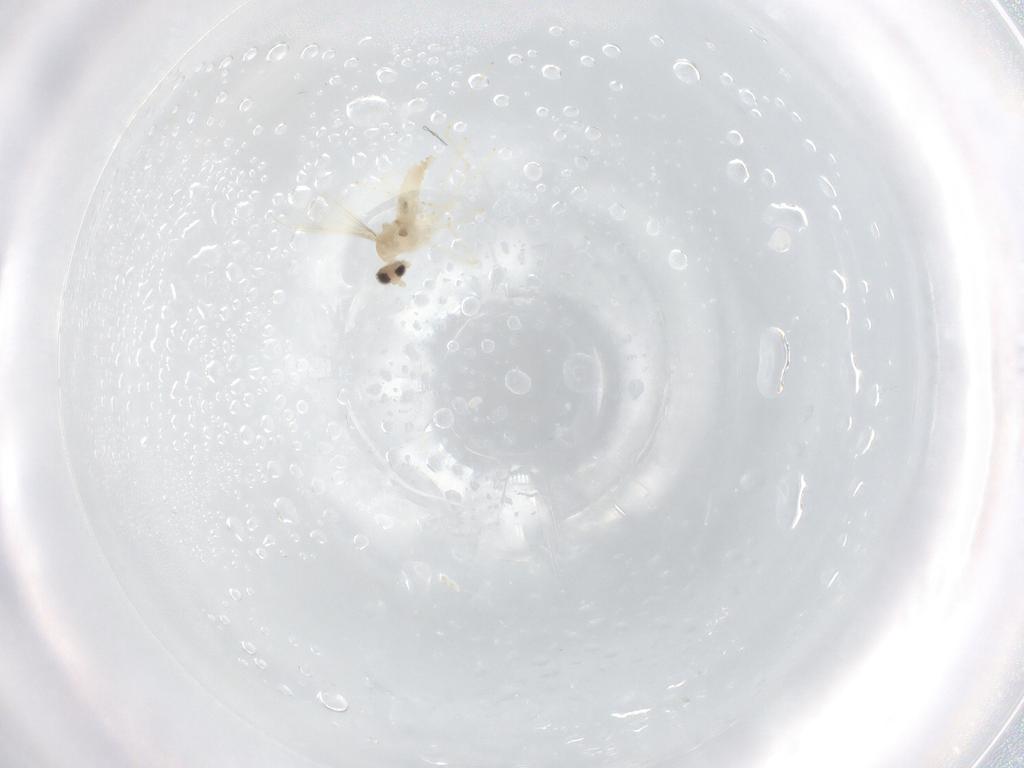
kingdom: Animalia
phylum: Arthropoda
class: Insecta
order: Diptera
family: Cecidomyiidae
